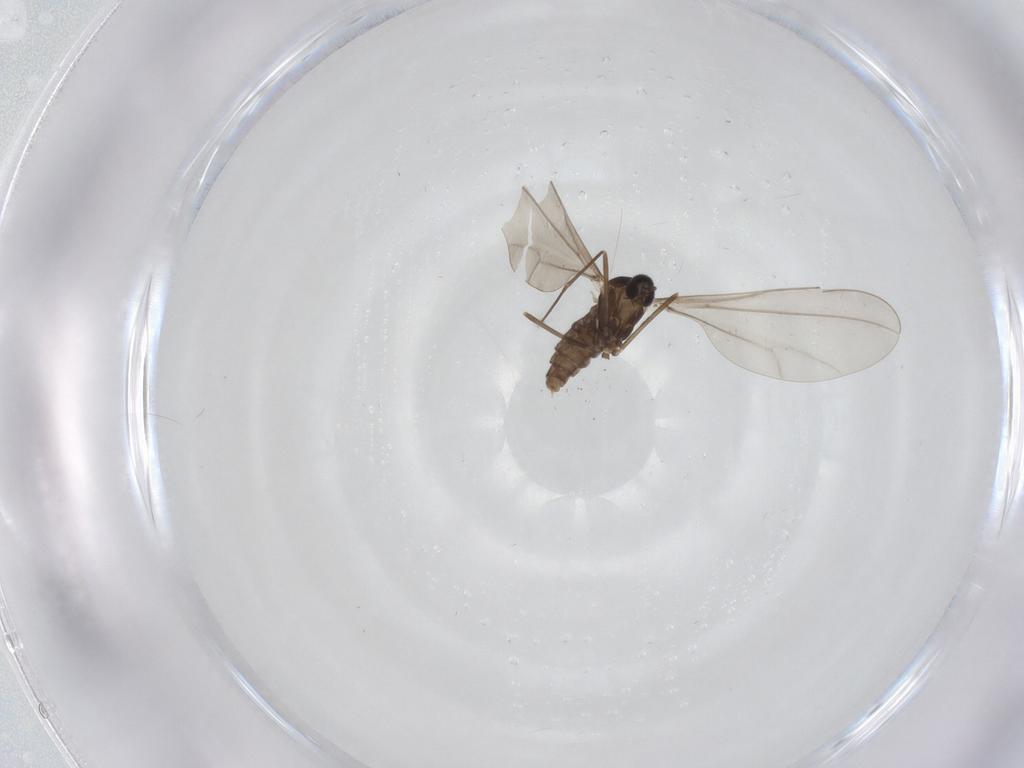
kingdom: Animalia
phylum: Arthropoda
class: Insecta
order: Diptera
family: Cecidomyiidae
